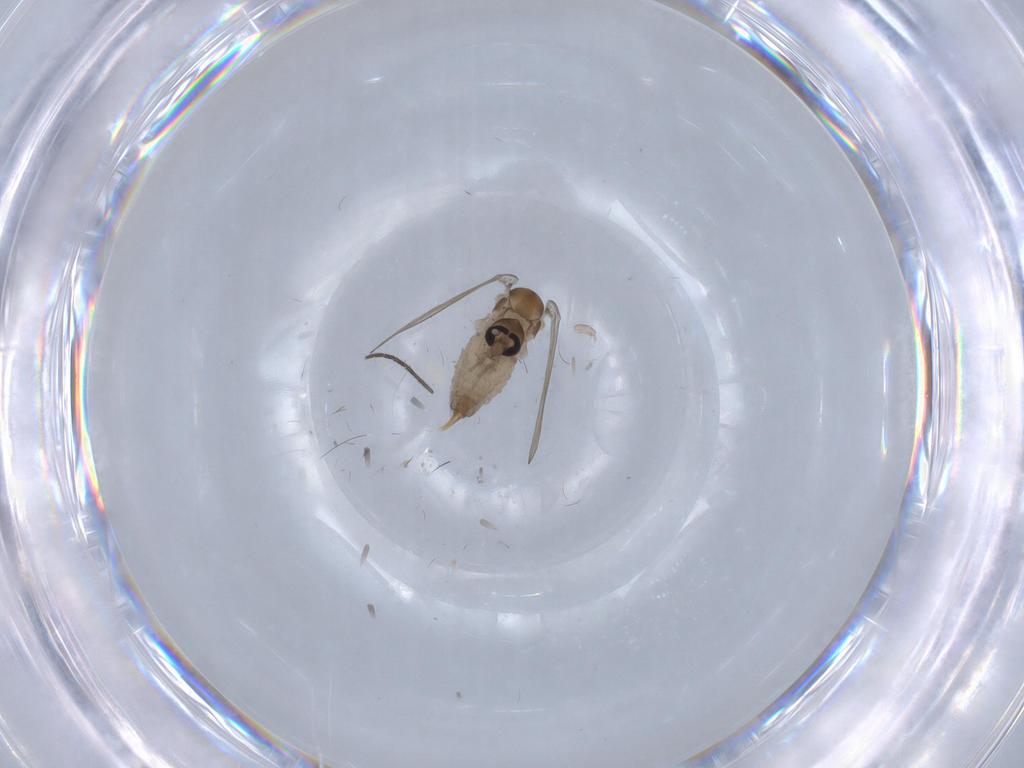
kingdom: Animalia
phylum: Arthropoda
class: Insecta
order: Diptera
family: Psychodidae
